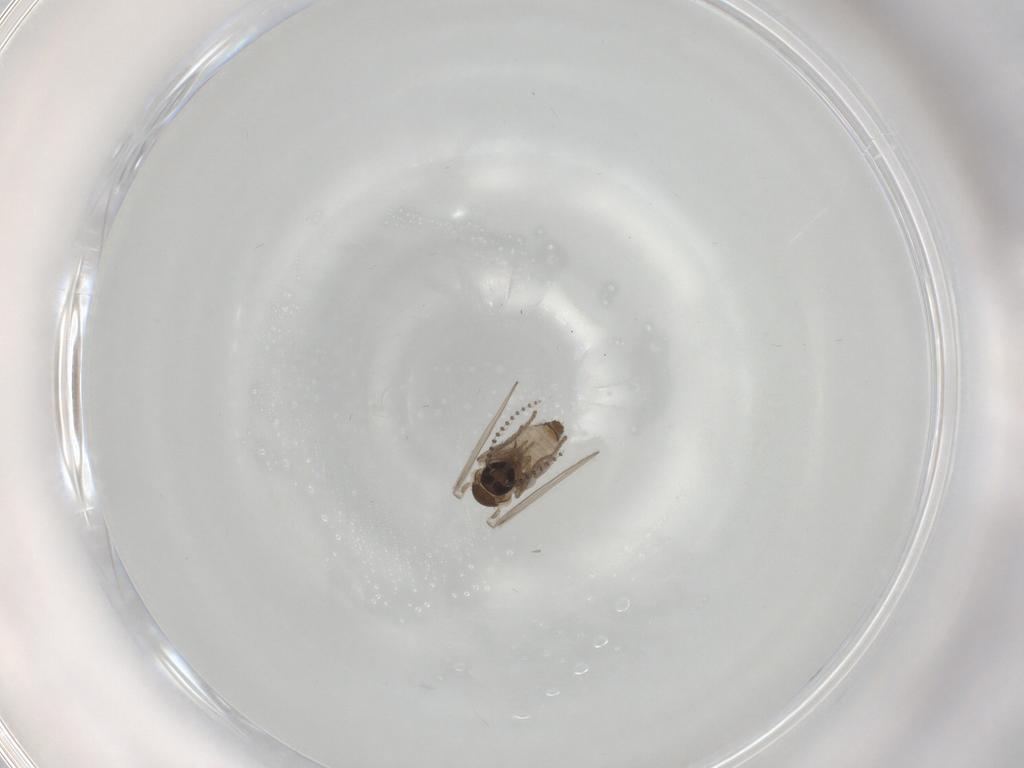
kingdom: Animalia
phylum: Arthropoda
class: Insecta
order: Diptera
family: Psychodidae
